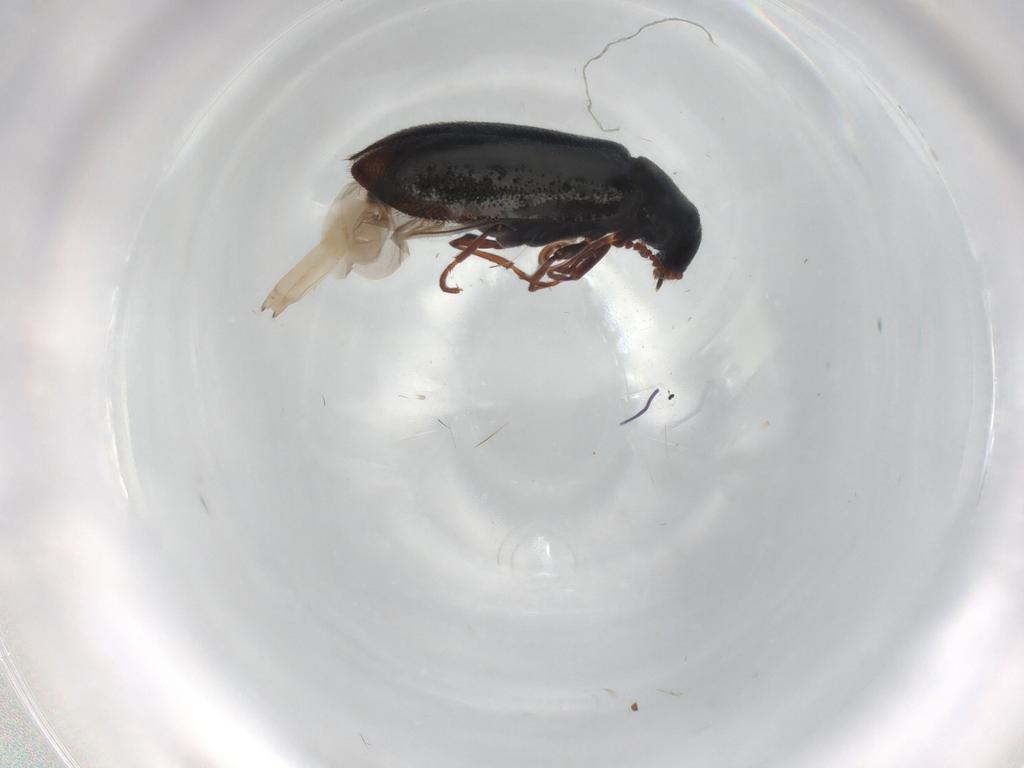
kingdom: Animalia
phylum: Arthropoda
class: Insecta
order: Coleoptera
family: Melyridae
